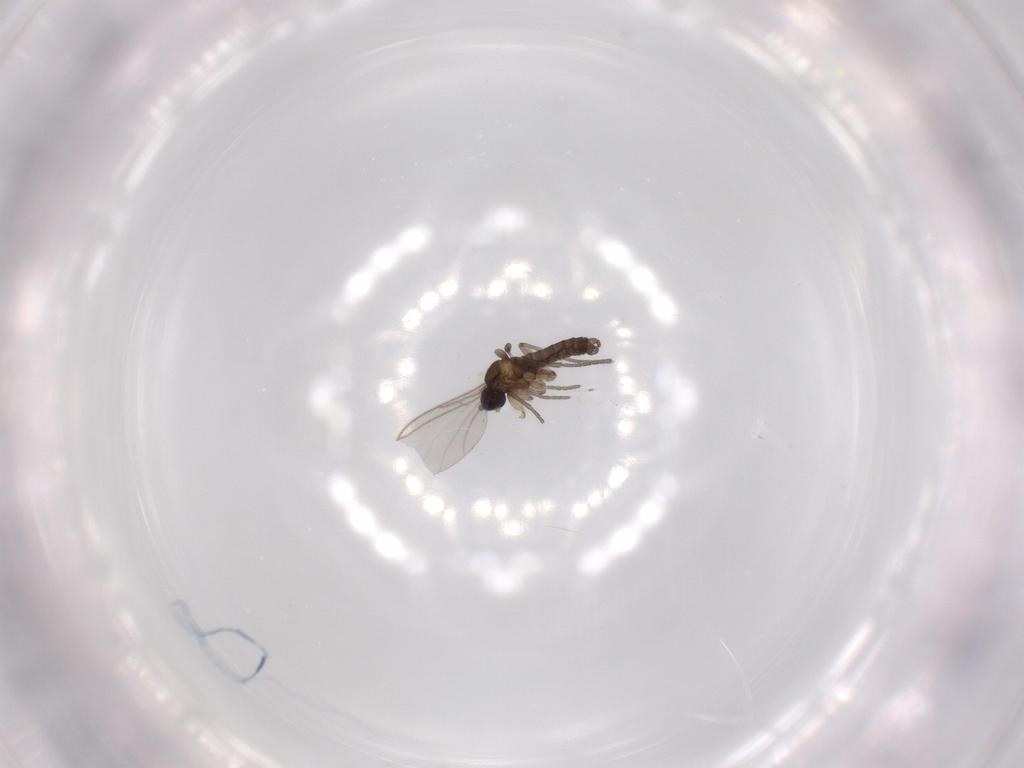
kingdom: Animalia
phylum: Arthropoda
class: Insecta
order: Diptera
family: Cecidomyiidae
